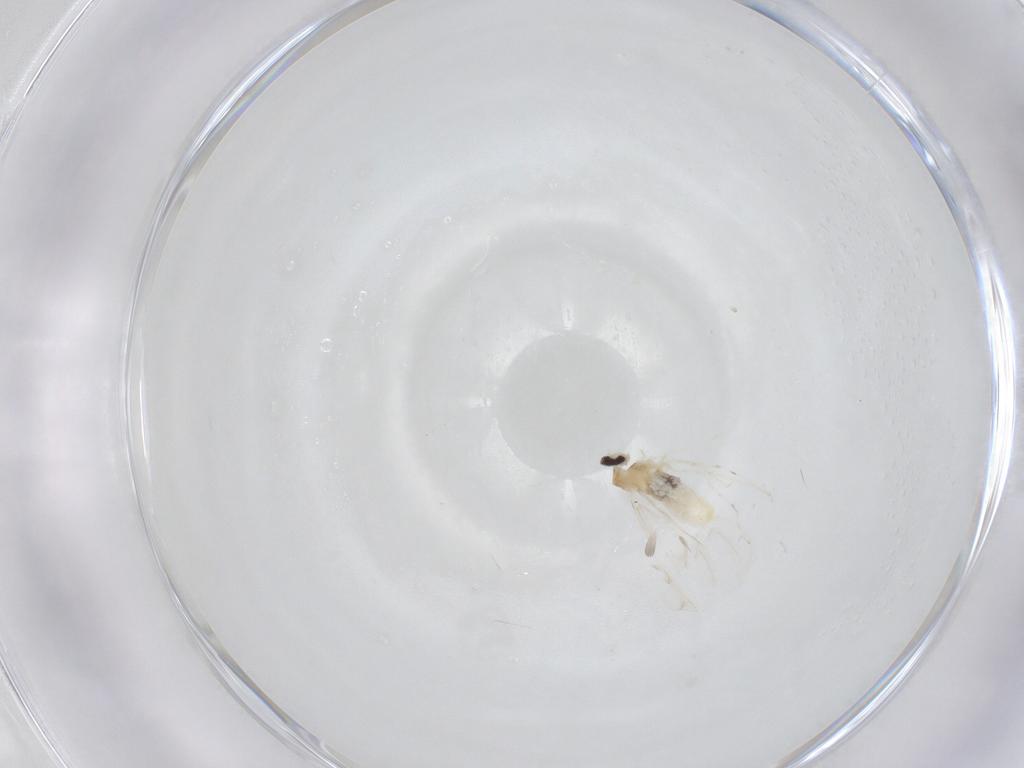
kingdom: Animalia
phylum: Arthropoda
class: Insecta
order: Diptera
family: Cecidomyiidae
